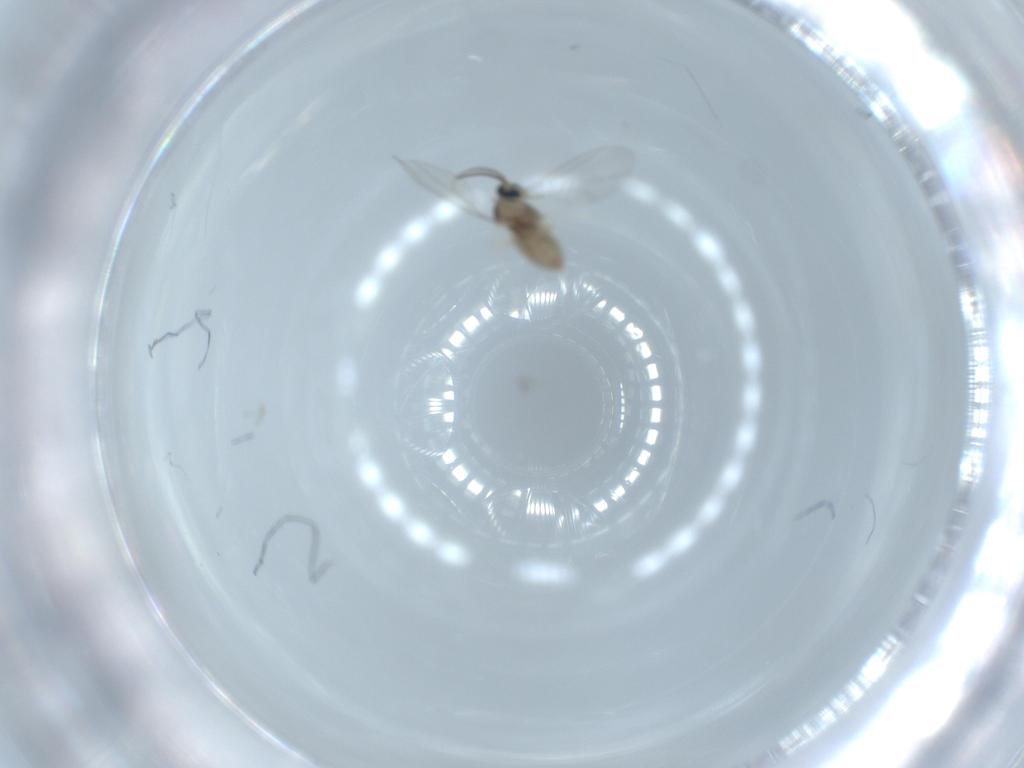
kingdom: Animalia
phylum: Arthropoda
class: Insecta
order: Diptera
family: Cecidomyiidae
